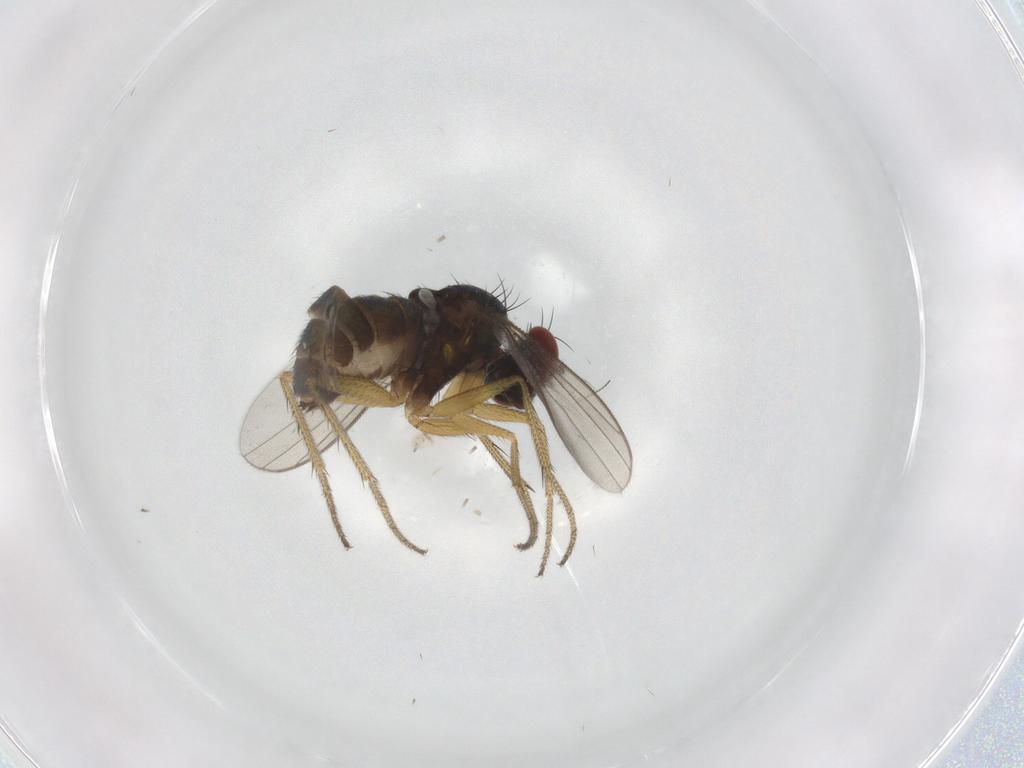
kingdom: Animalia
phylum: Arthropoda
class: Insecta
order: Diptera
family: Dolichopodidae
